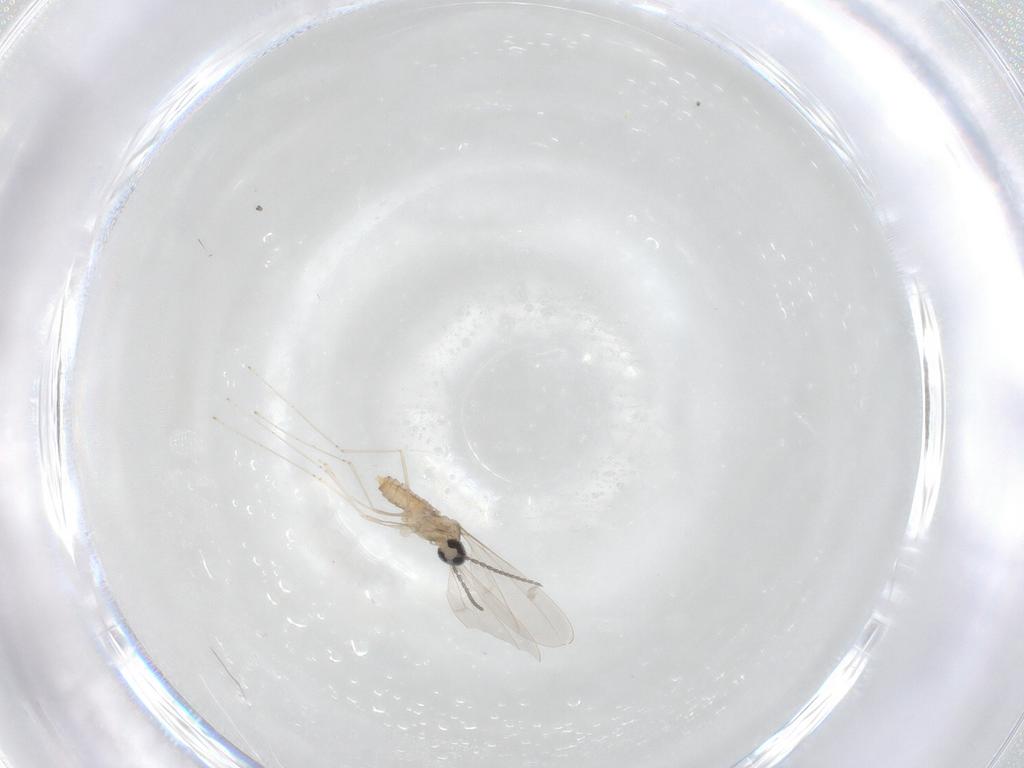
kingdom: Animalia
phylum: Arthropoda
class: Insecta
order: Diptera
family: Cecidomyiidae
